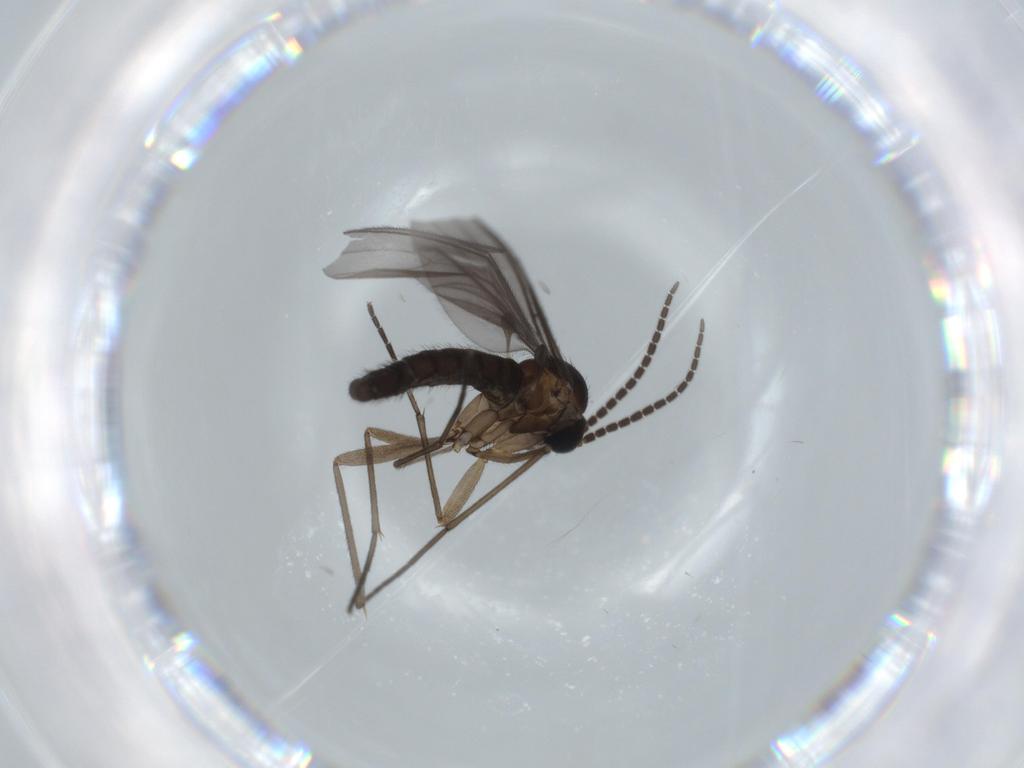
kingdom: Animalia
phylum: Arthropoda
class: Insecta
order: Diptera
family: Sciaridae
